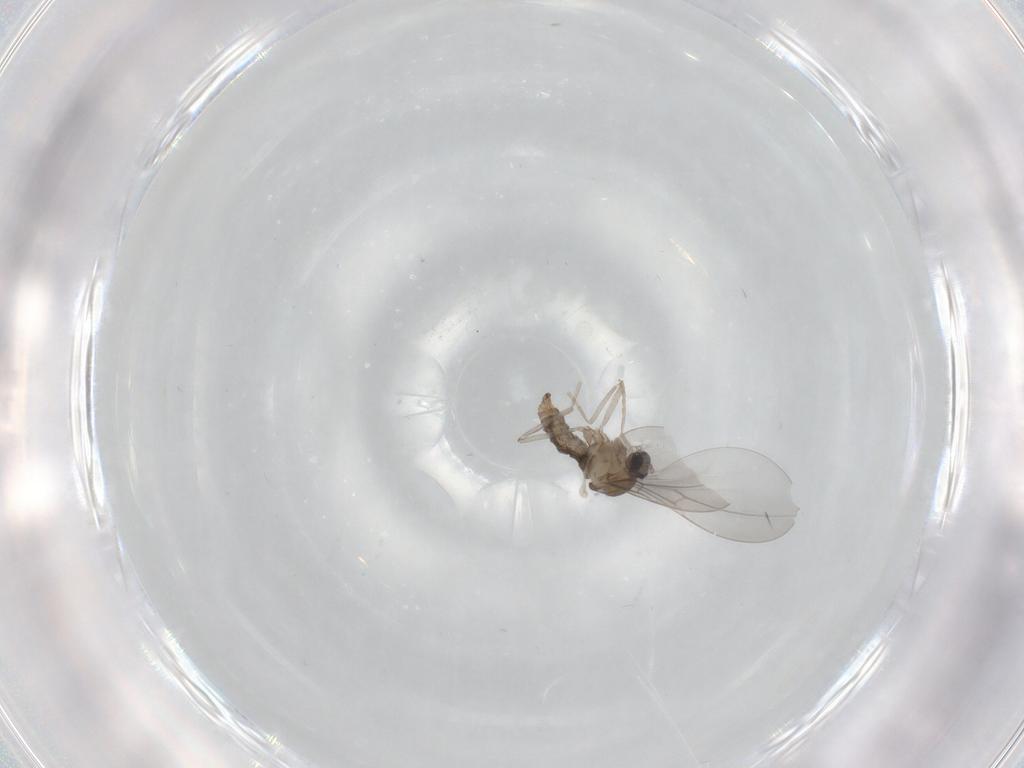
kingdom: Animalia
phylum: Arthropoda
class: Insecta
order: Diptera
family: Cecidomyiidae
